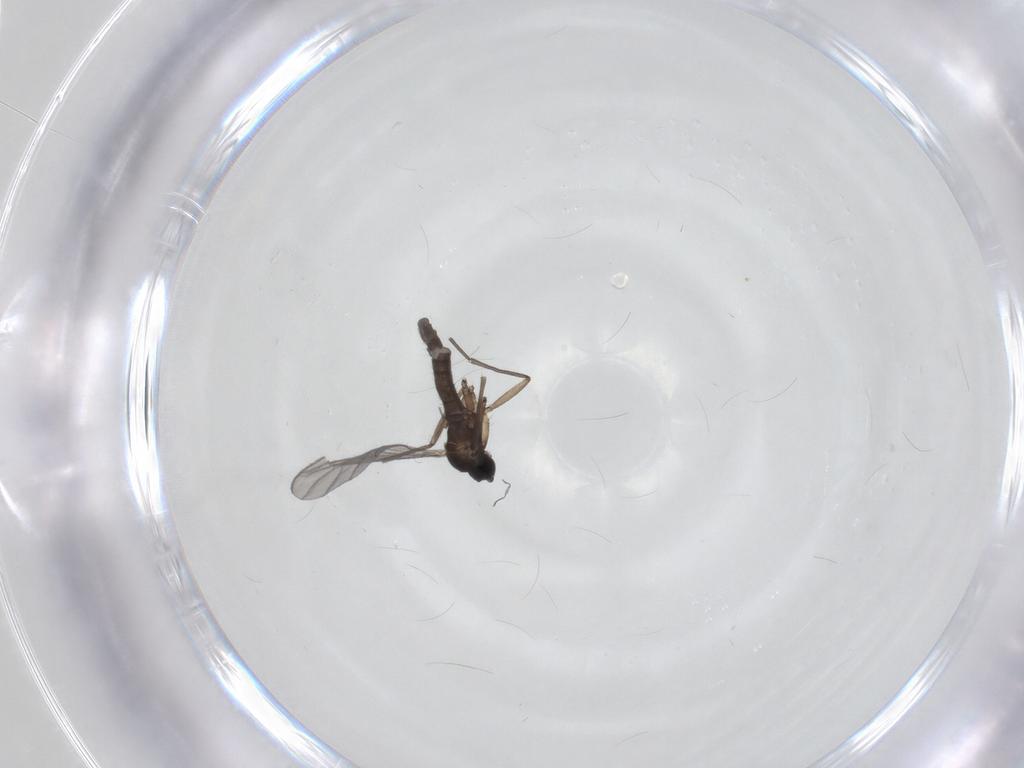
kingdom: Animalia
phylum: Arthropoda
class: Insecta
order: Diptera
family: Sciaridae
